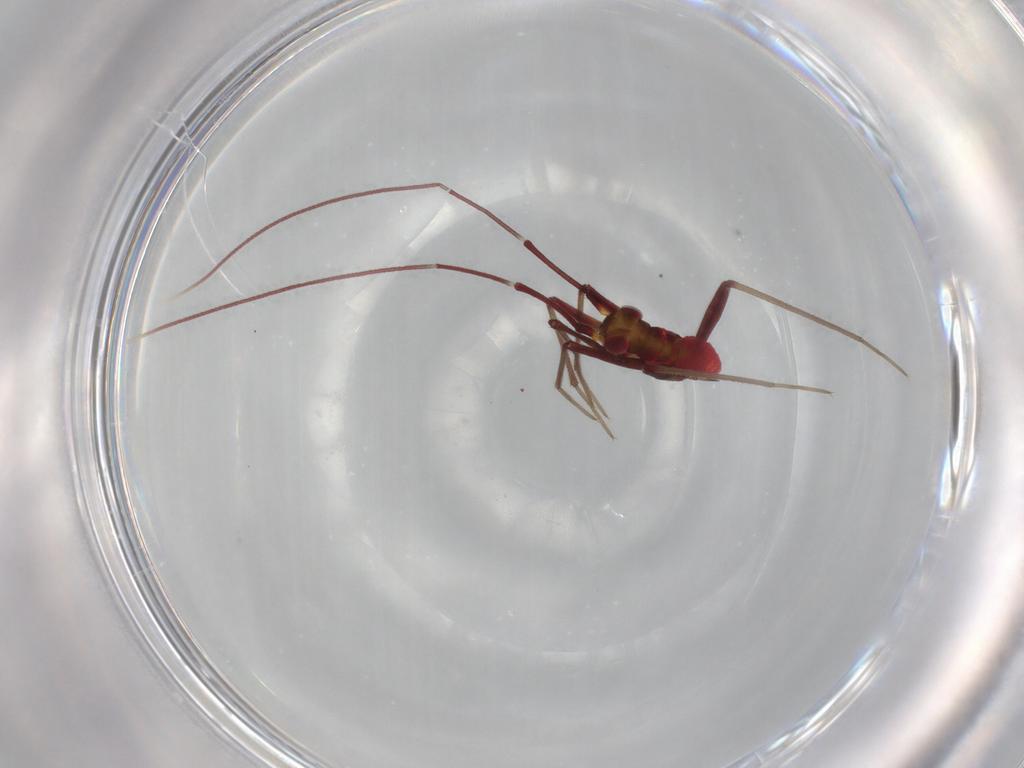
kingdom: Animalia
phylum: Arthropoda
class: Insecta
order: Hemiptera
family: Miridae
